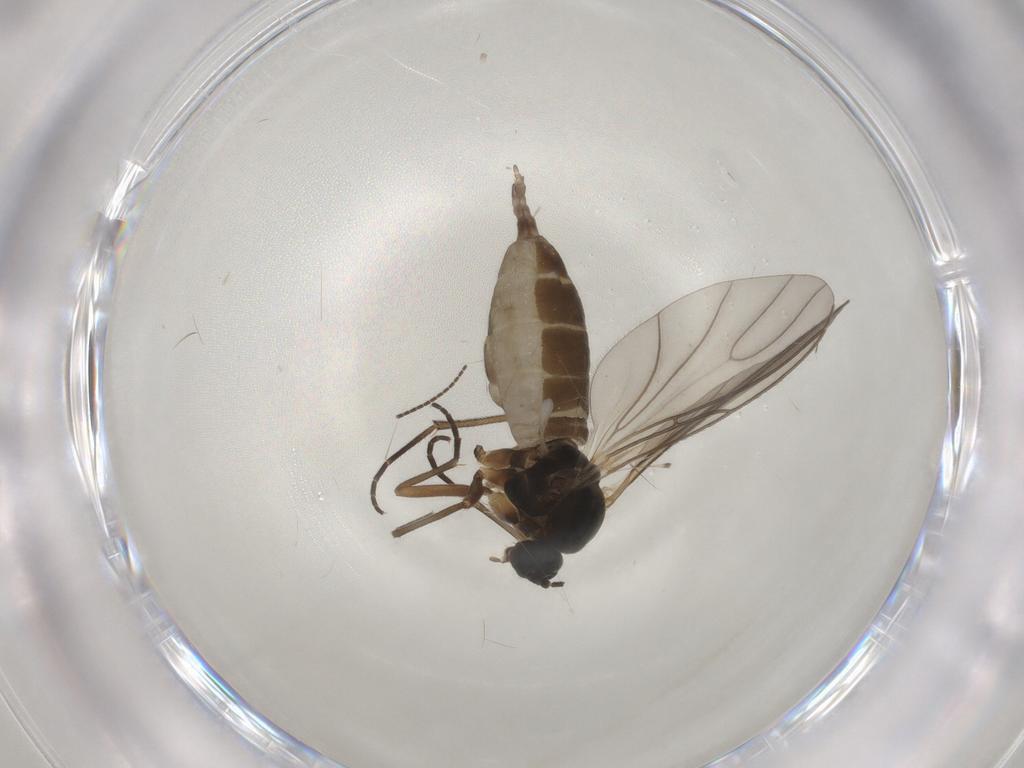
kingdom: Animalia
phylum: Arthropoda
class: Insecta
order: Diptera
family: Sciaridae
